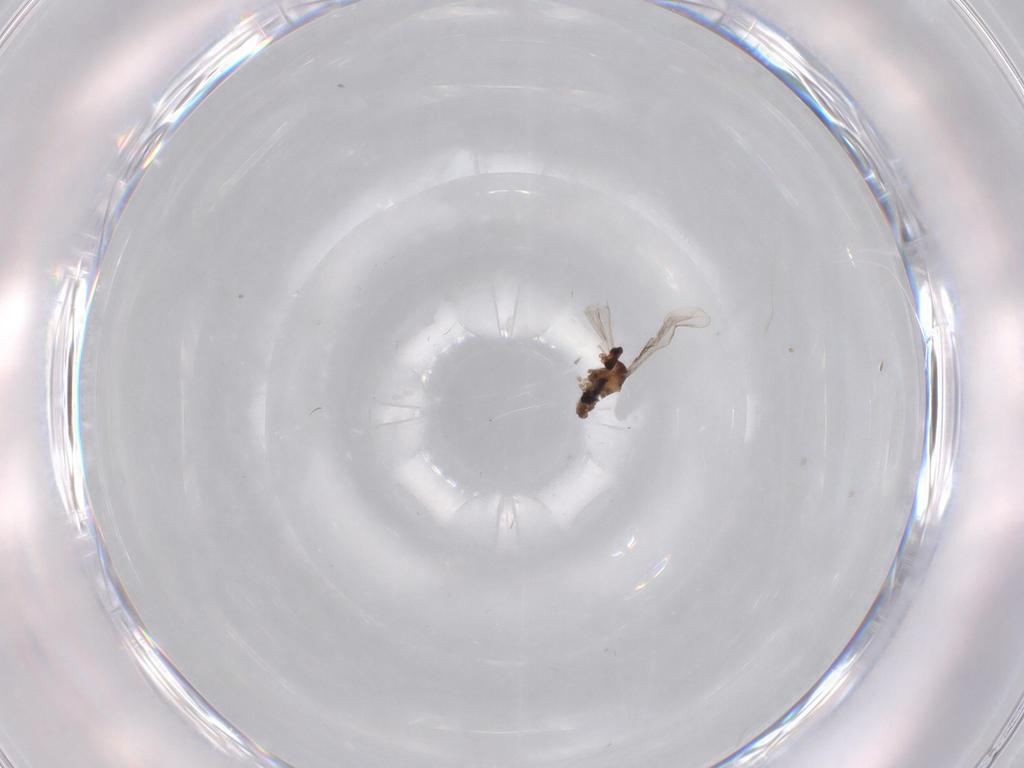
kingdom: Animalia
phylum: Arthropoda
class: Insecta
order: Diptera
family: Cecidomyiidae
